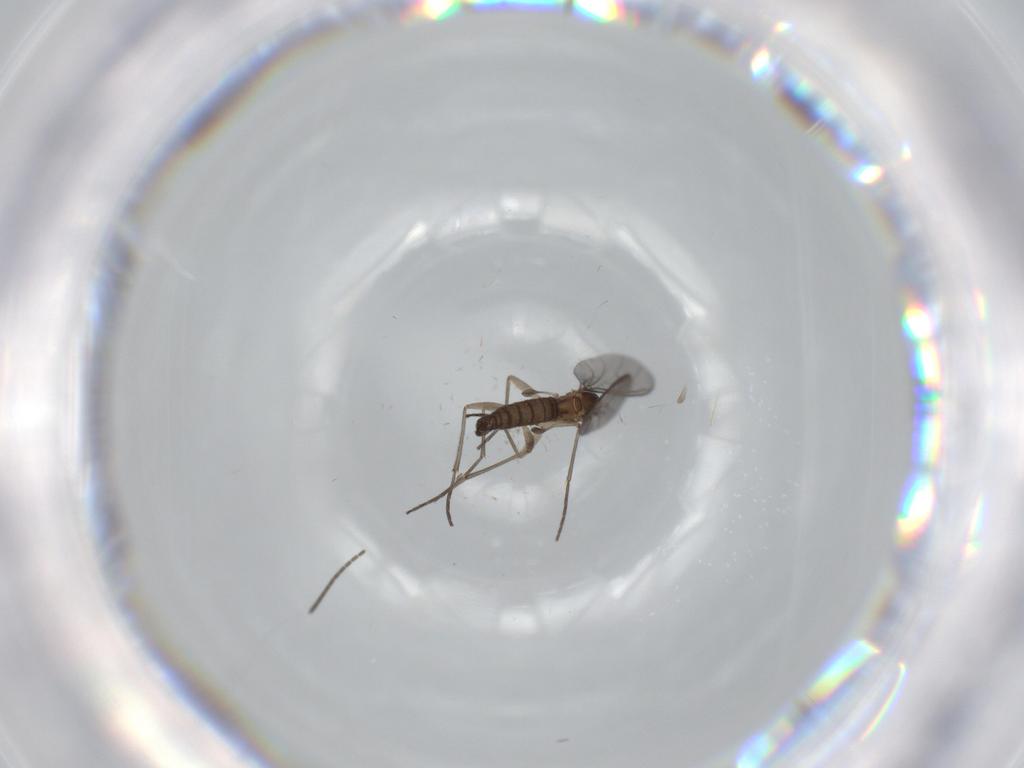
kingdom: Animalia
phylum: Arthropoda
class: Insecta
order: Diptera
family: Sciaridae
